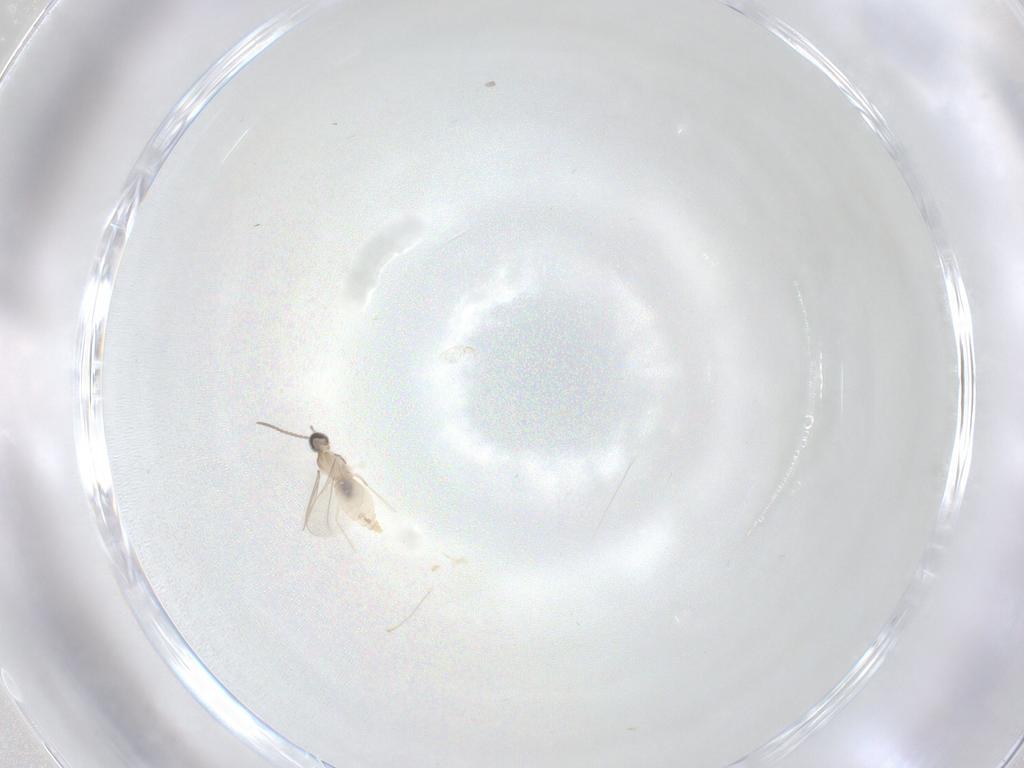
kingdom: Animalia
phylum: Arthropoda
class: Insecta
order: Diptera
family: Ceratopogonidae
